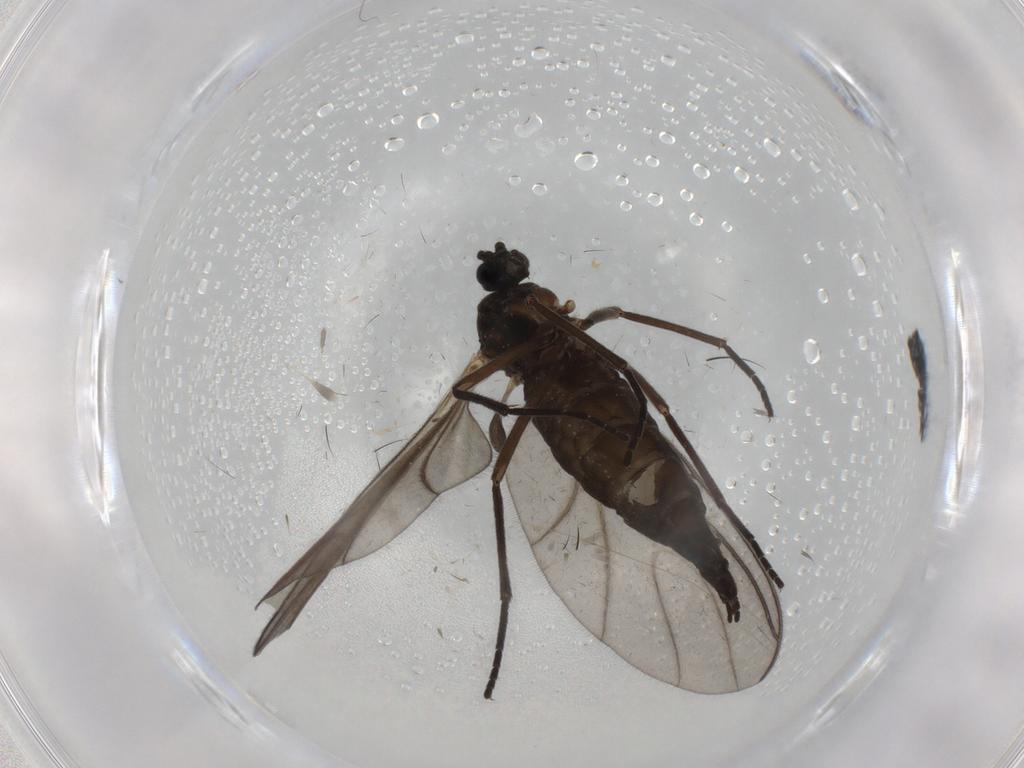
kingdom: Animalia
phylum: Arthropoda
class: Insecta
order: Diptera
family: Sciaridae
